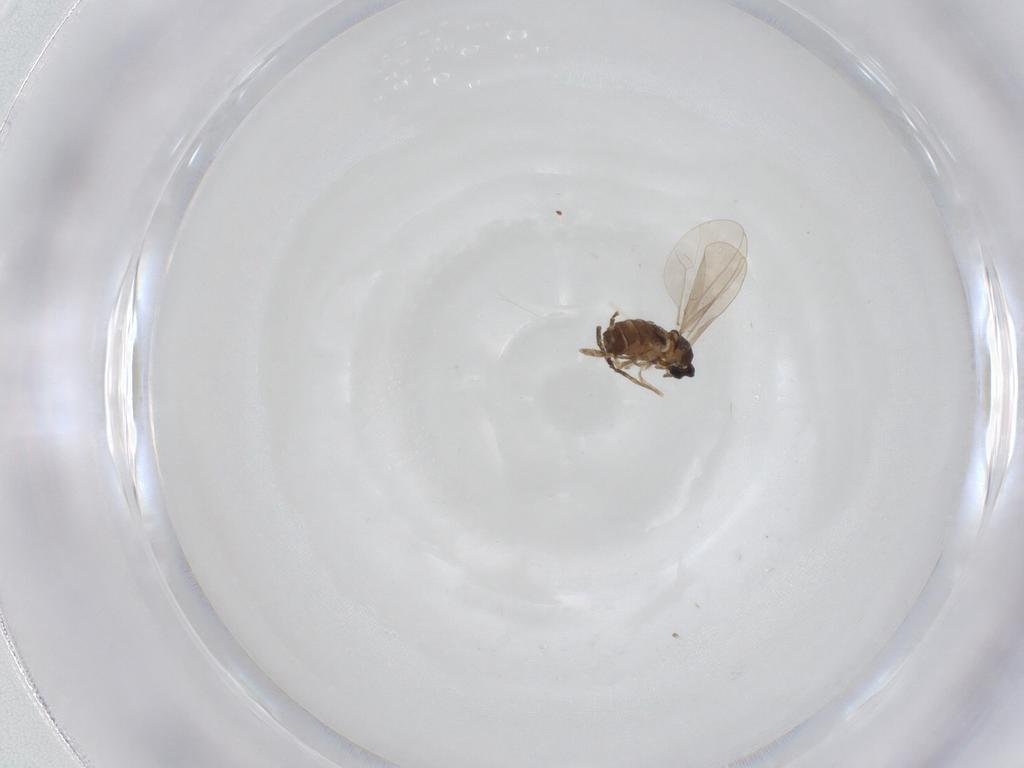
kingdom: Animalia
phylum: Arthropoda
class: Insecta
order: Diptera
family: Cecidomyiidae
